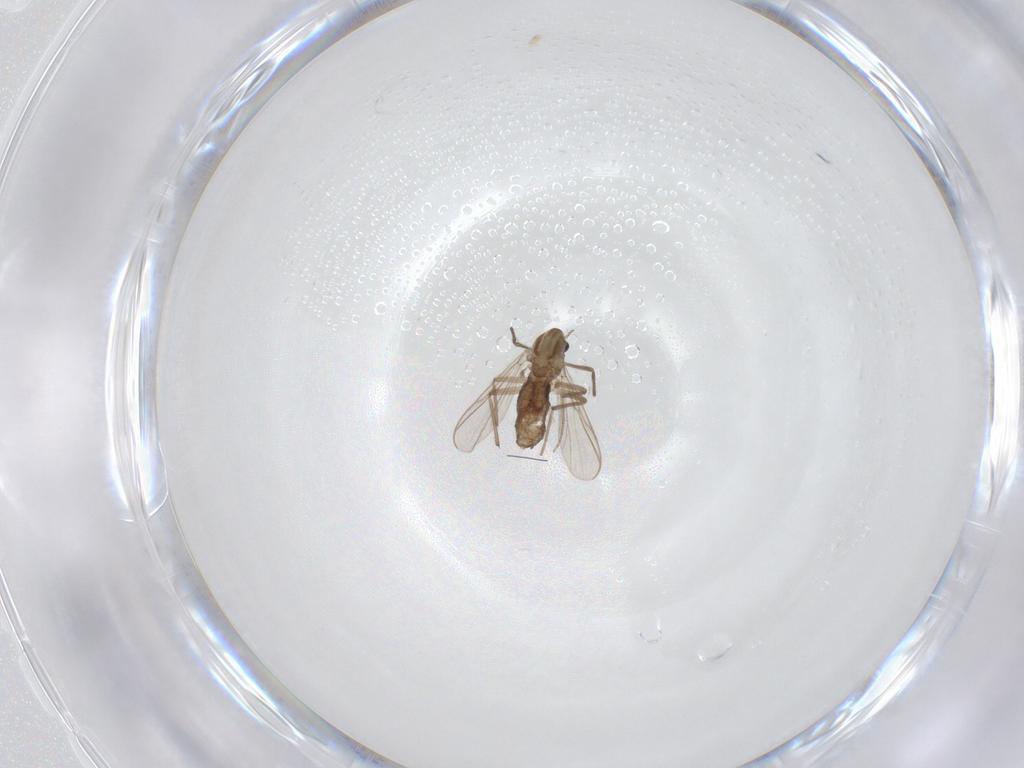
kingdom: Animalia
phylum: Arthropoda
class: Insecta
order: Diptera
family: Chironomidae
